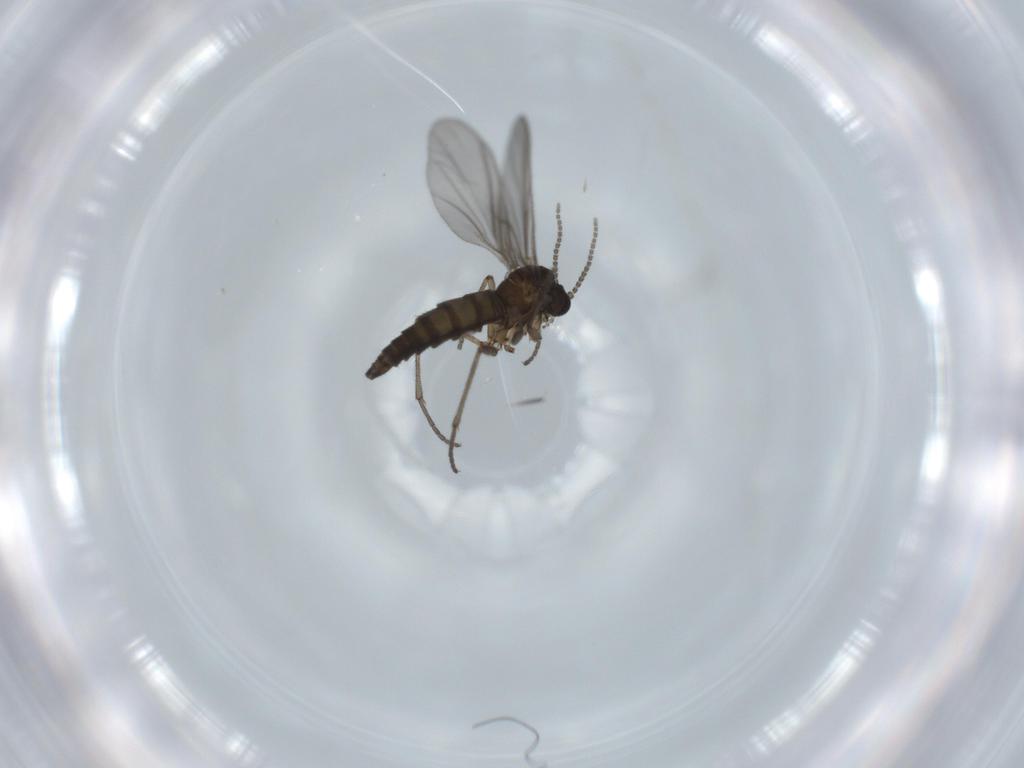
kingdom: Animalia
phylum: Arthropoda
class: Insecta
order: Diptera
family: Sciaridae
